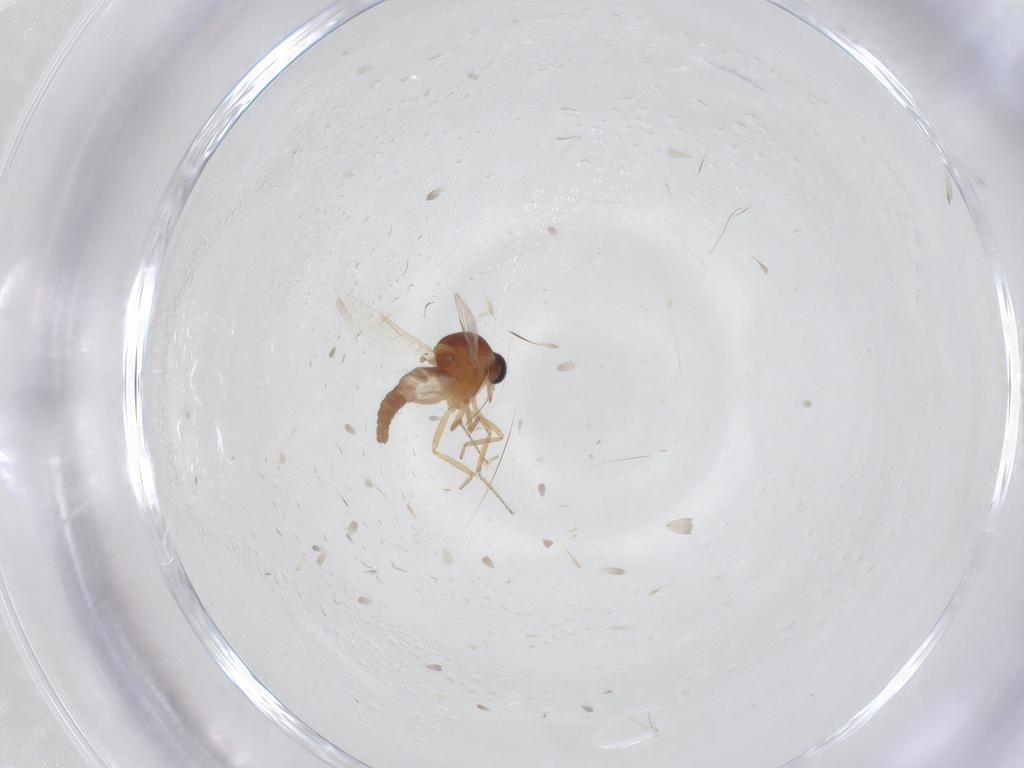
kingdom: Animalia
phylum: Arthropoda
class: Insecta
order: Diptera
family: Ceratopogonidae
